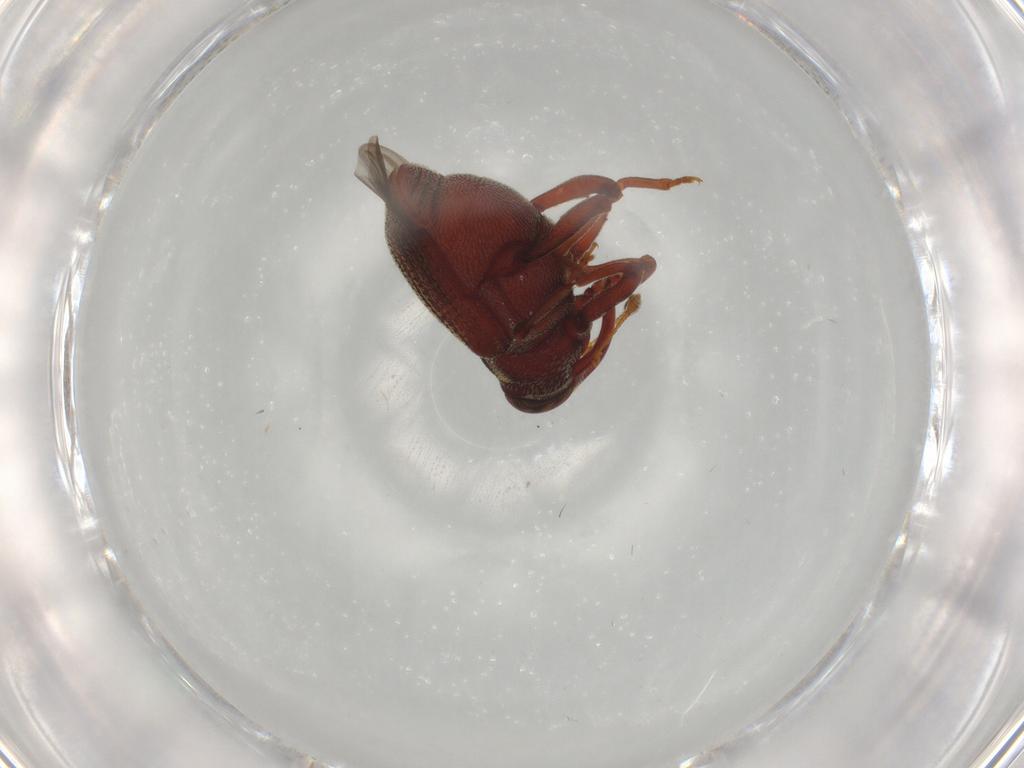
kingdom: Animalia
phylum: Arthropoda
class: Insecta
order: Coleoptera
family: Curculionidae
